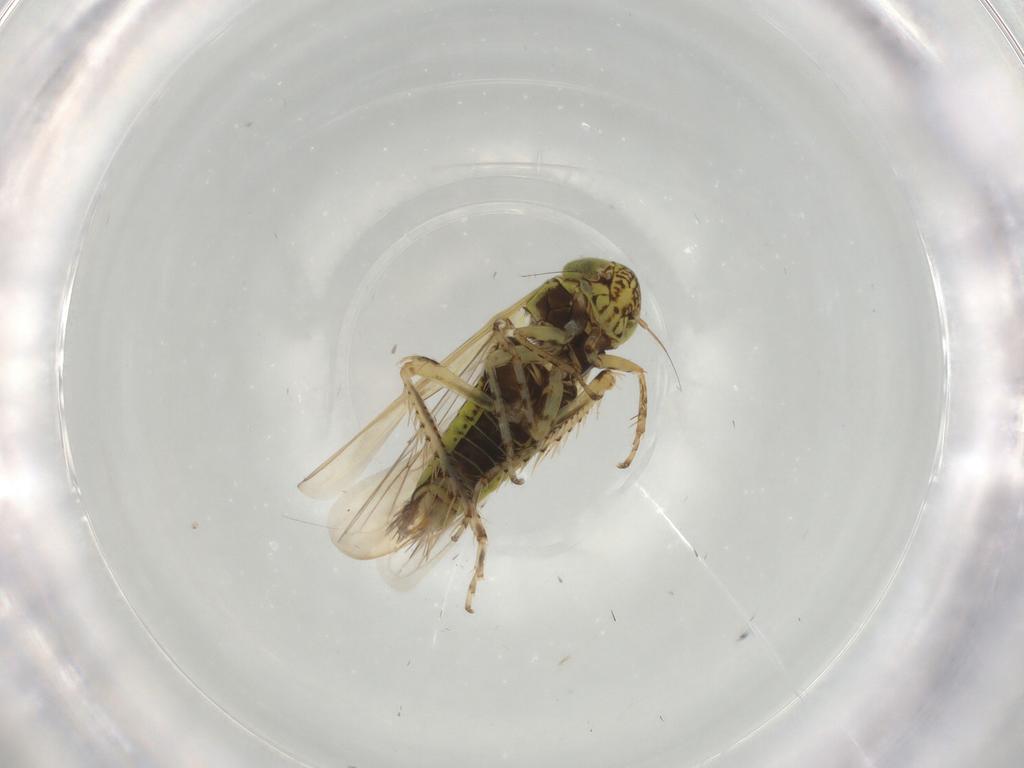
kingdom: Animalia
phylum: Arthropoda
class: Insecta
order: Hemiptera
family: Cicadellidae
